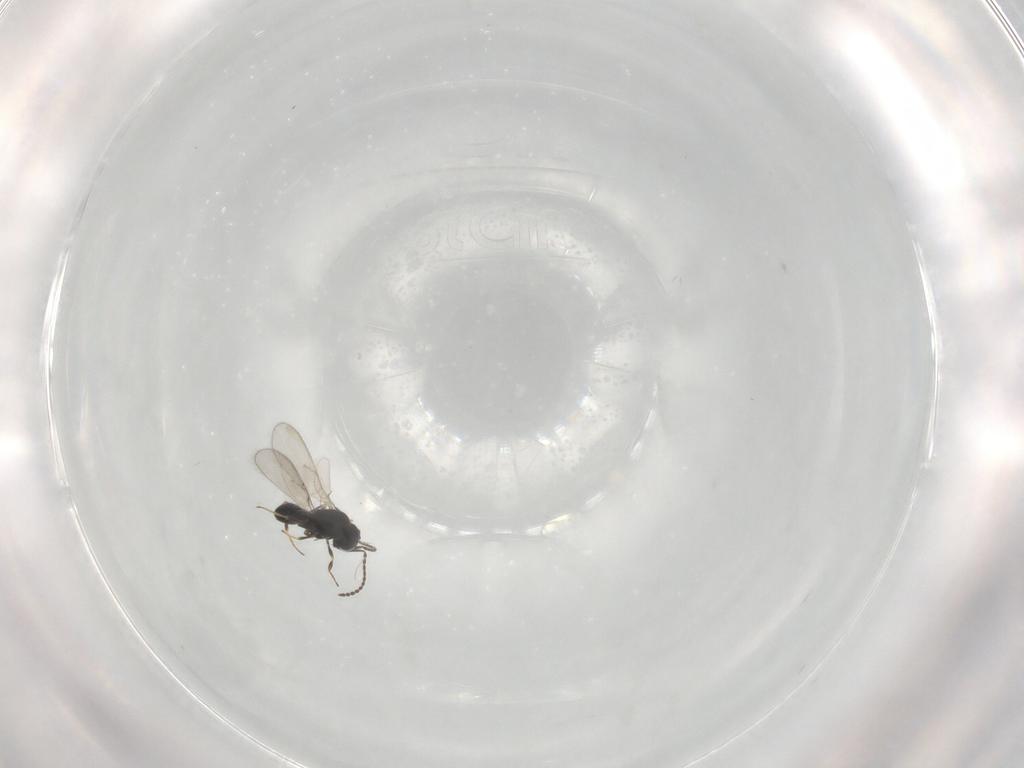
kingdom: Animalia
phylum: Arthropoda
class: Insecta
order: Hymenoptera
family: Scelionidae
